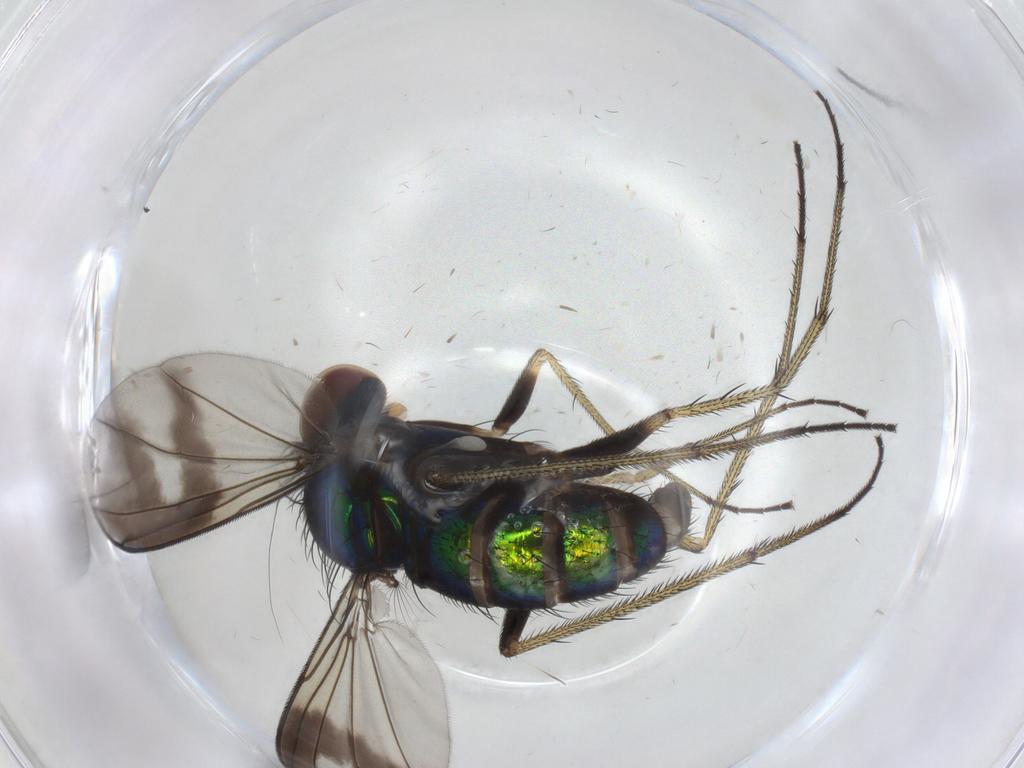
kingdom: Animalia
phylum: Arthropoda
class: Insecta
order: Diptera
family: Dolichopodidae
